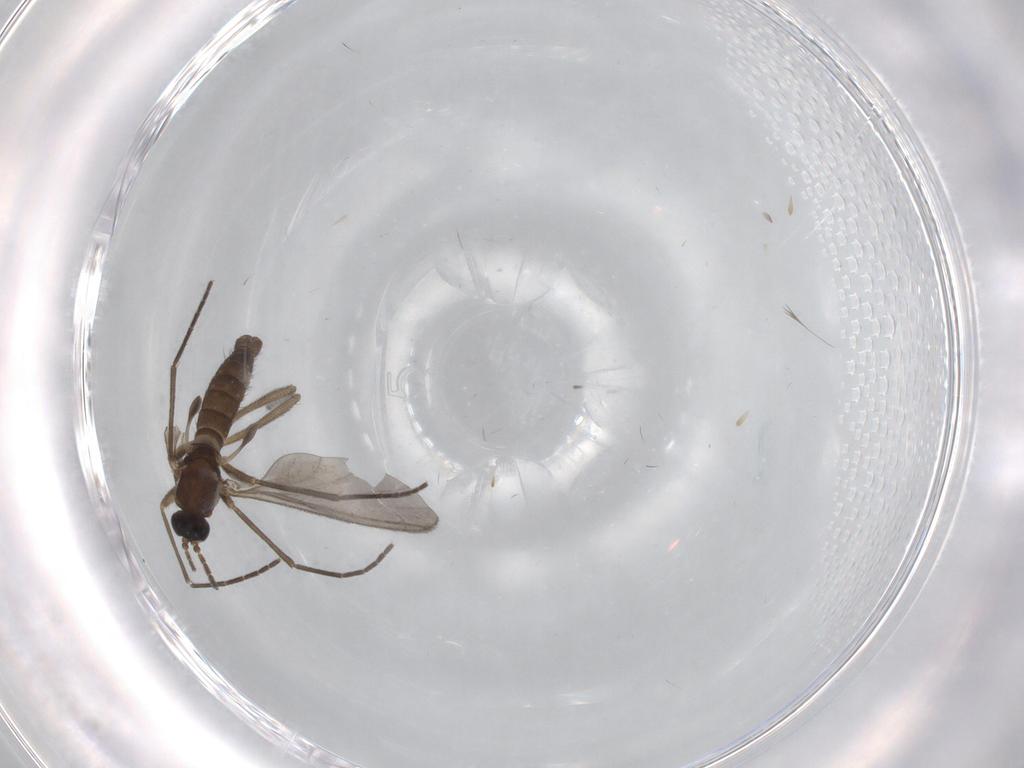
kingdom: Animalia
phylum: Arthropoda
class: Insecta
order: Diptera
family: Sciaridae
